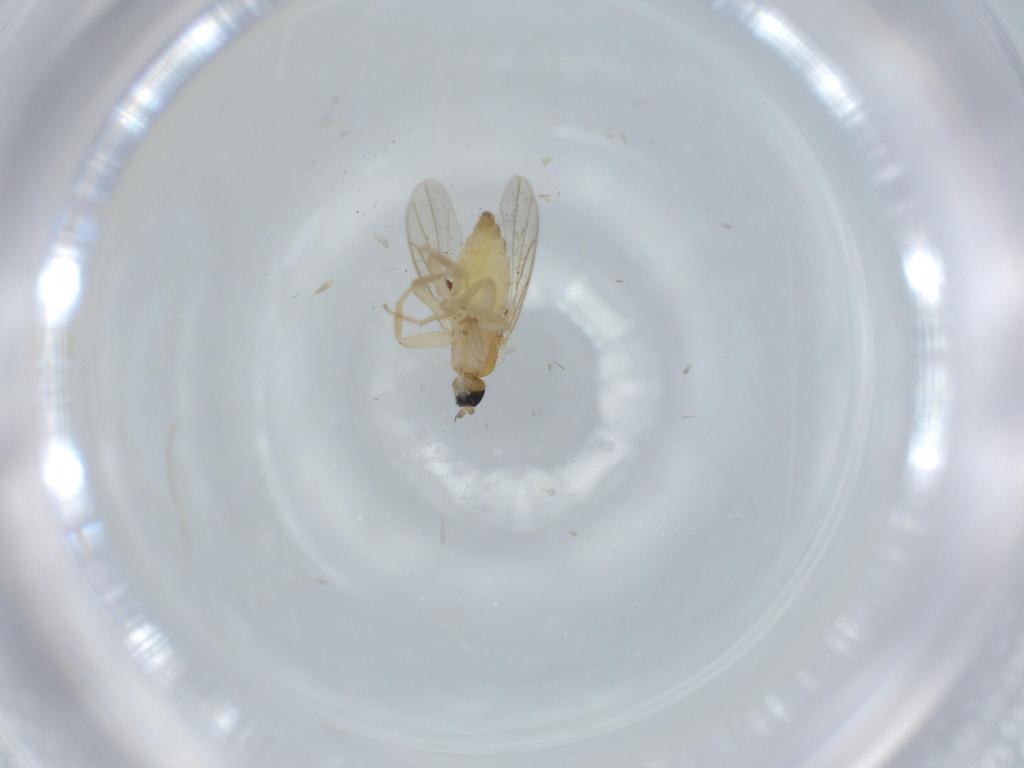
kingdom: Animalia
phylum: Arthropoda
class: Insecta
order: Diptera
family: Hybotidae
